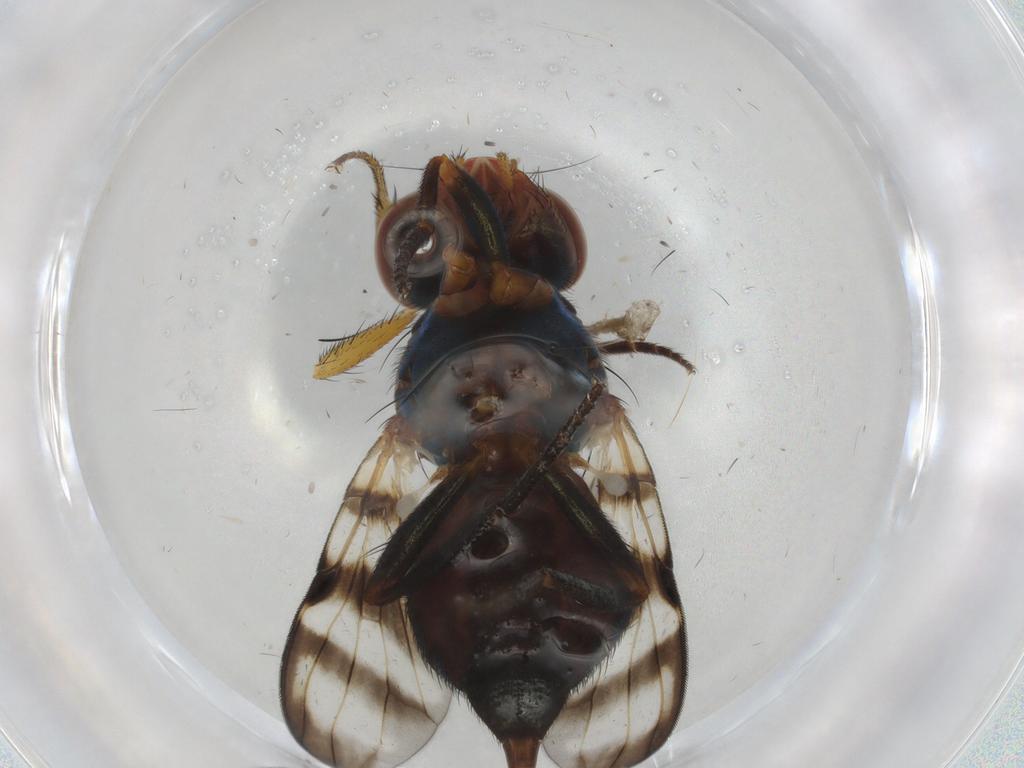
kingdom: Animalia
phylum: Arthropoda
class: Insecta
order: Diptera
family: Muscidae
